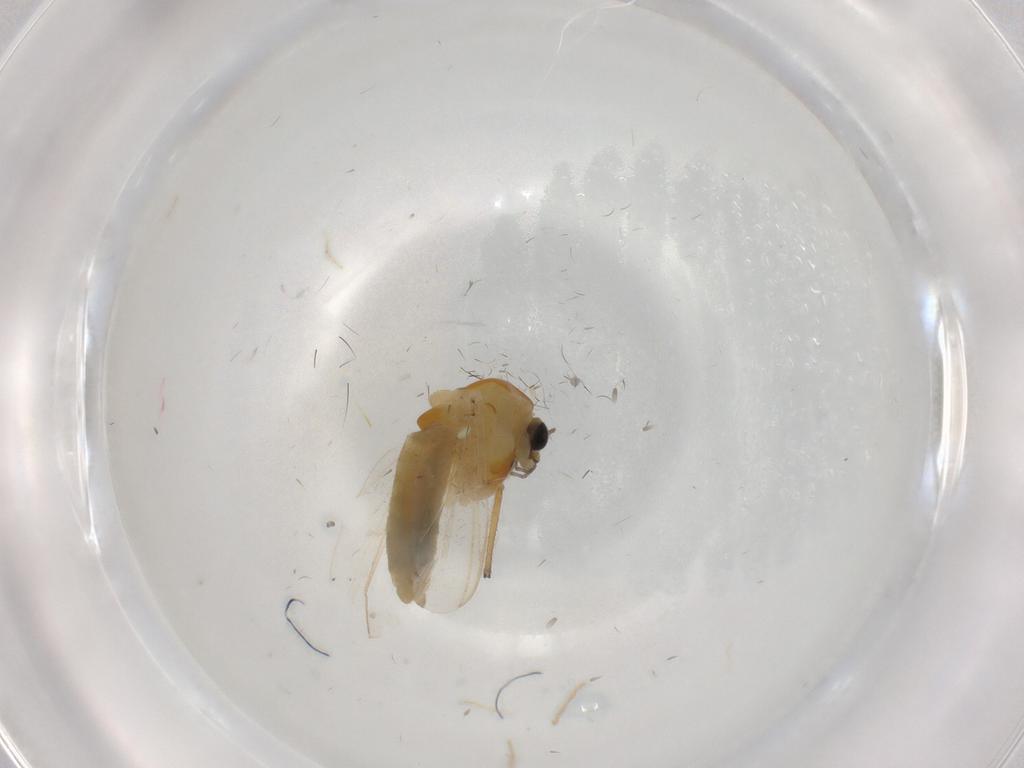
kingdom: Animalia
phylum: Arthropoda
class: Insecta
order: Diptera
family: Chironomidae
